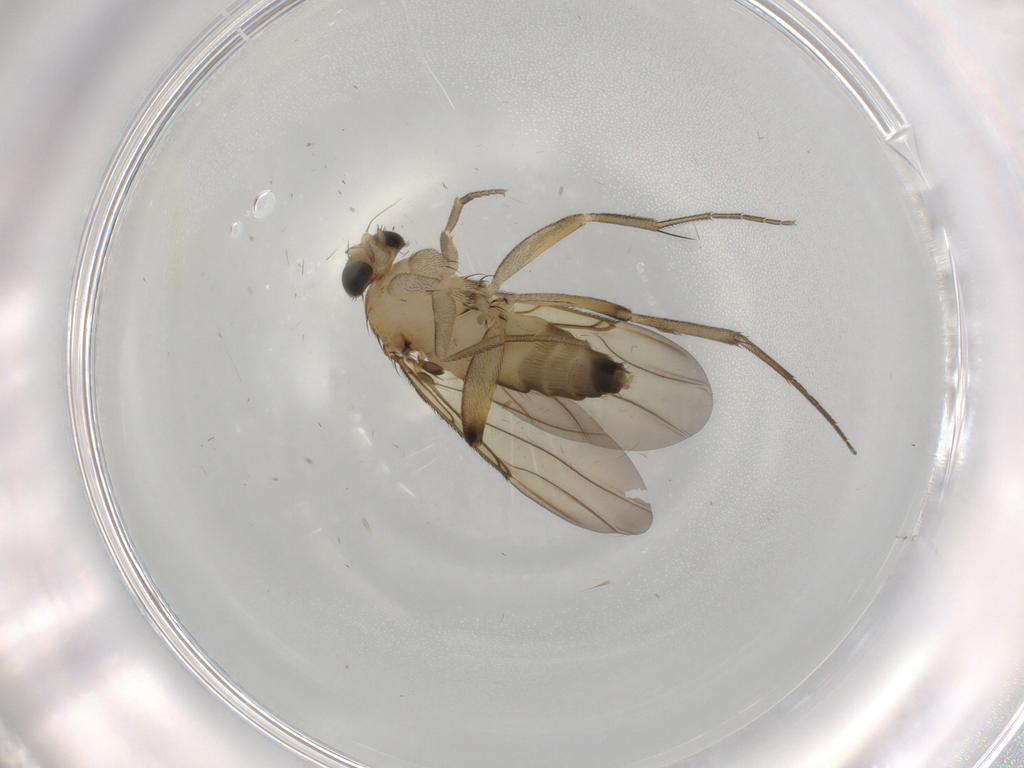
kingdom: Animalia
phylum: Arthropoda
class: Insecta
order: Diptera
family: Phoridae
